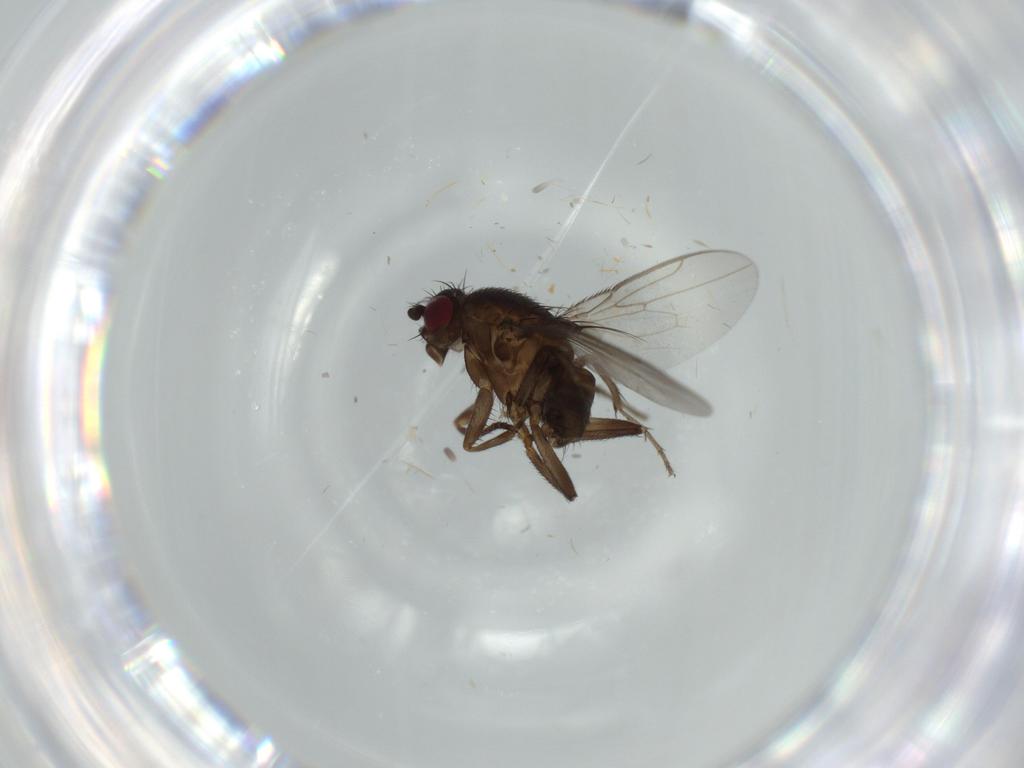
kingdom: Animalia
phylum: Arthropoda
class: Insecta
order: Diptera
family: Sphaeroceridae
